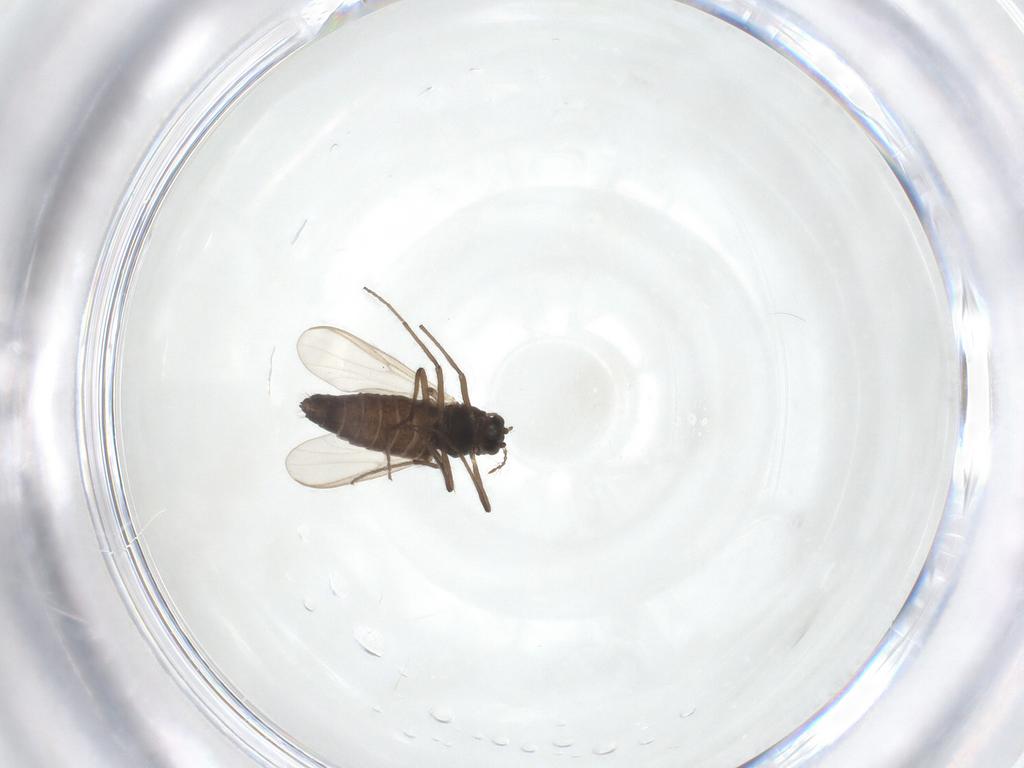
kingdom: Animalia
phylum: Arthropoda
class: Insecta
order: Diptera
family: Chironomidae
